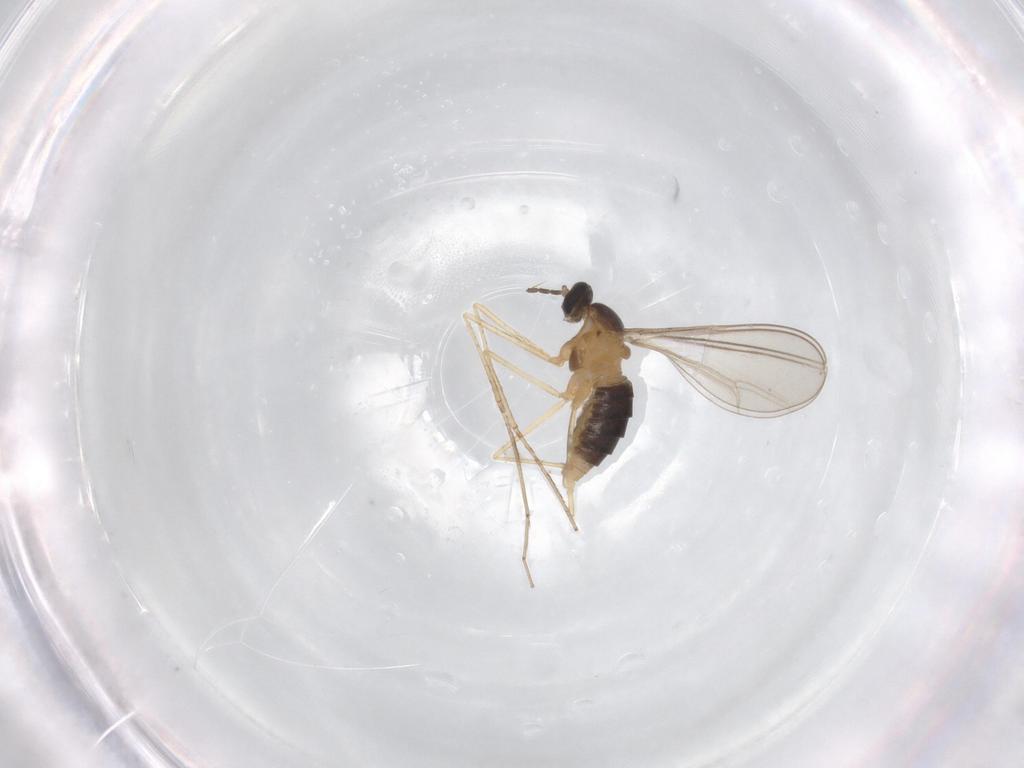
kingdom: Animalia
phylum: Arthropoda
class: Insecta
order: Diptera
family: Cecidomyiidae
